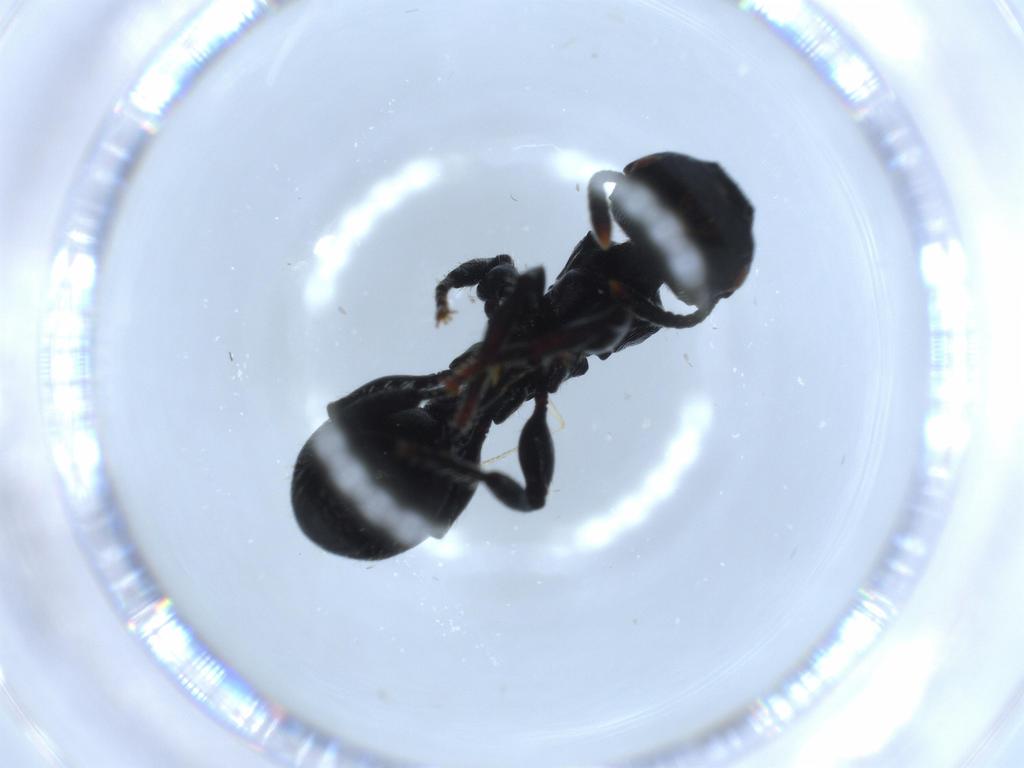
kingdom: Animalia
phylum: Arthropoda
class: Insecta
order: Hymenoptera
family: Formicidae
